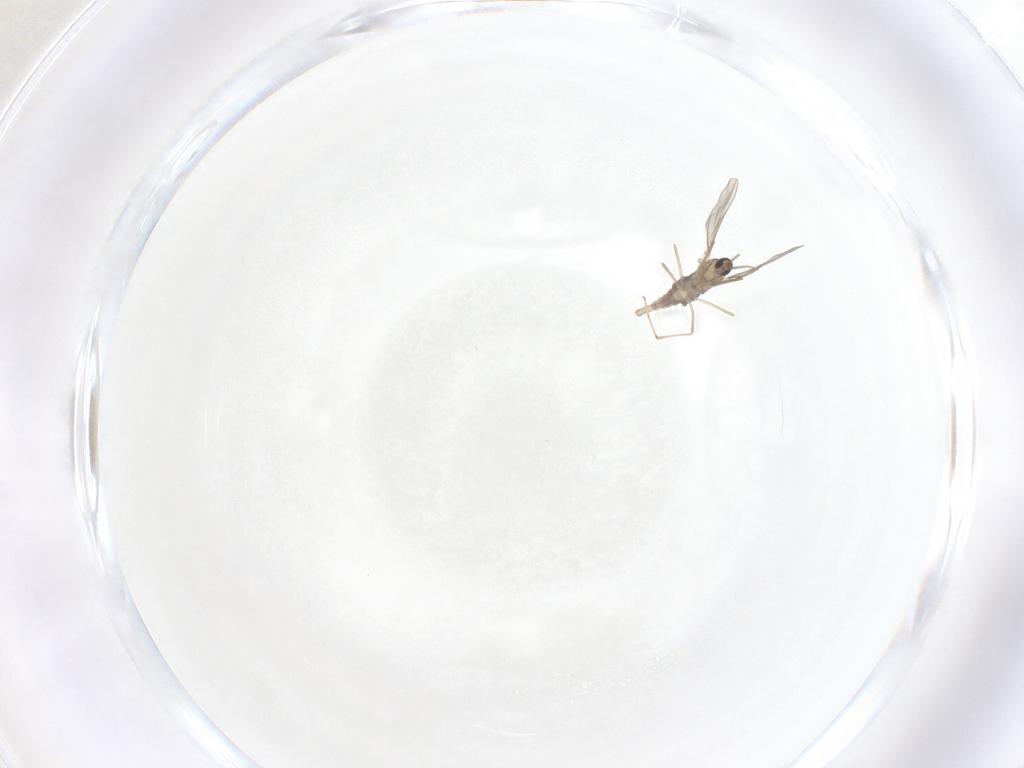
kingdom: Animalia
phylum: Arthropoda
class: Insecta
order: Diptera
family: Cecidomyiidae
